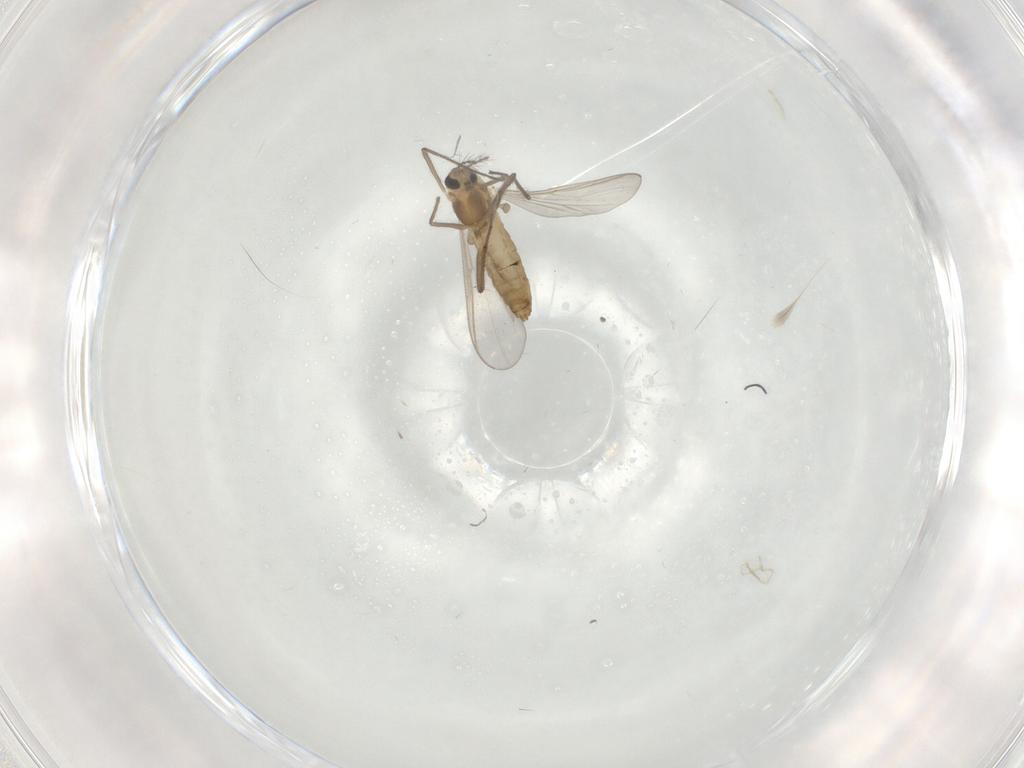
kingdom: Animalia
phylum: Arthropoda
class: Insecta
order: Diptera
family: Chironomidae
